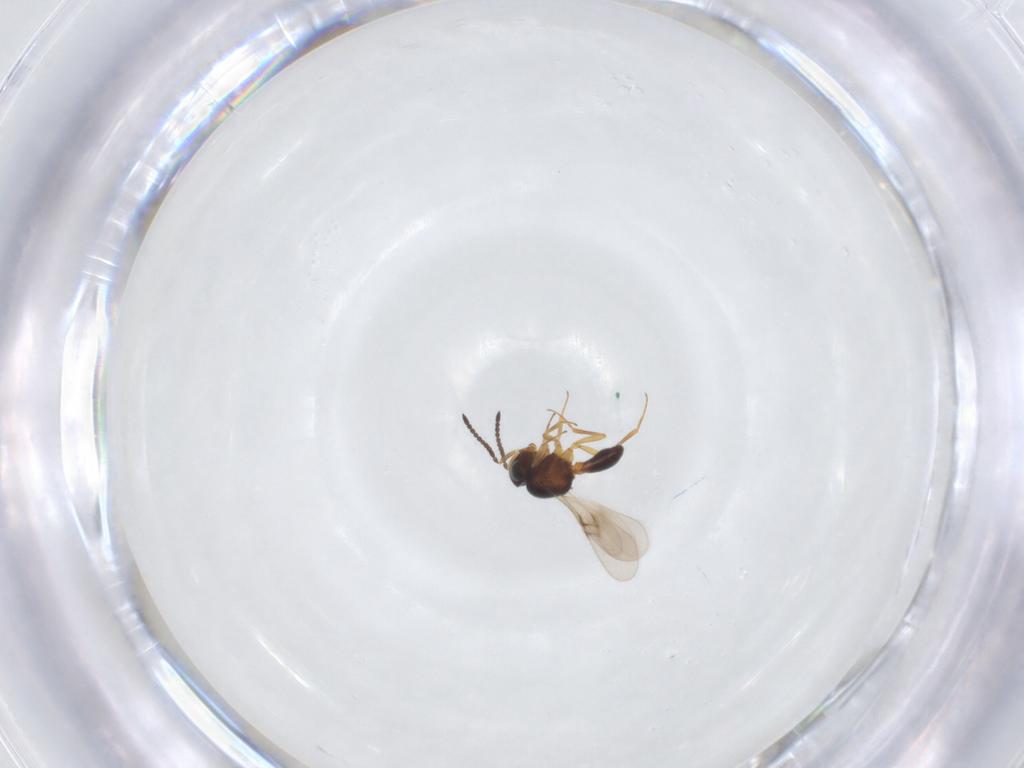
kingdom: Animalia
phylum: Arthropoda
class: Arachnida
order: Araneae
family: Pholcidae
